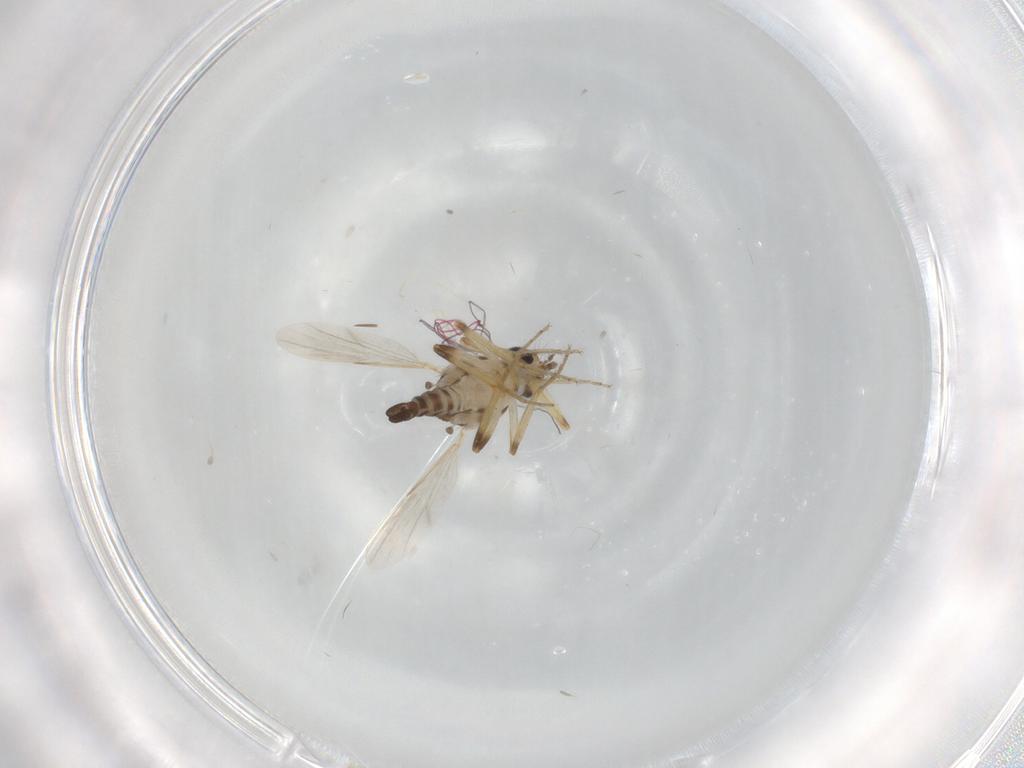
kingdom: Animalia
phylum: Arthropoda
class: Insecta
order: Diptera
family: Ceratopogonidae
